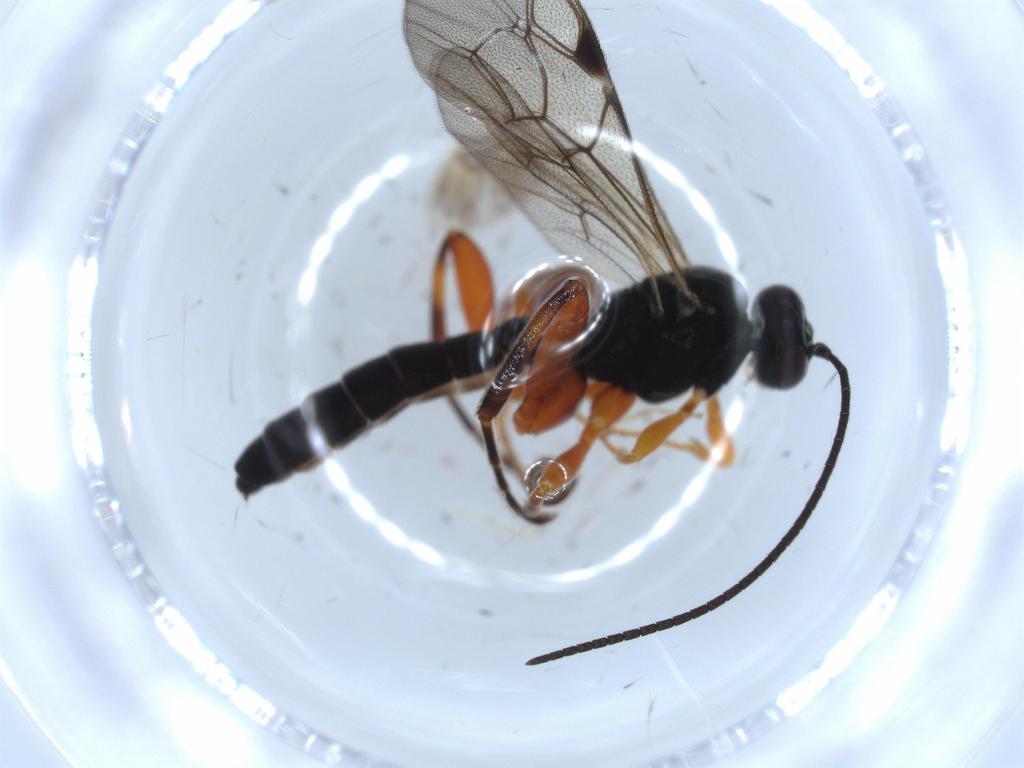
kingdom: Animalia
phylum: Arthropoda
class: Insecta
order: Hymenoptera
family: Ichneumonidae
